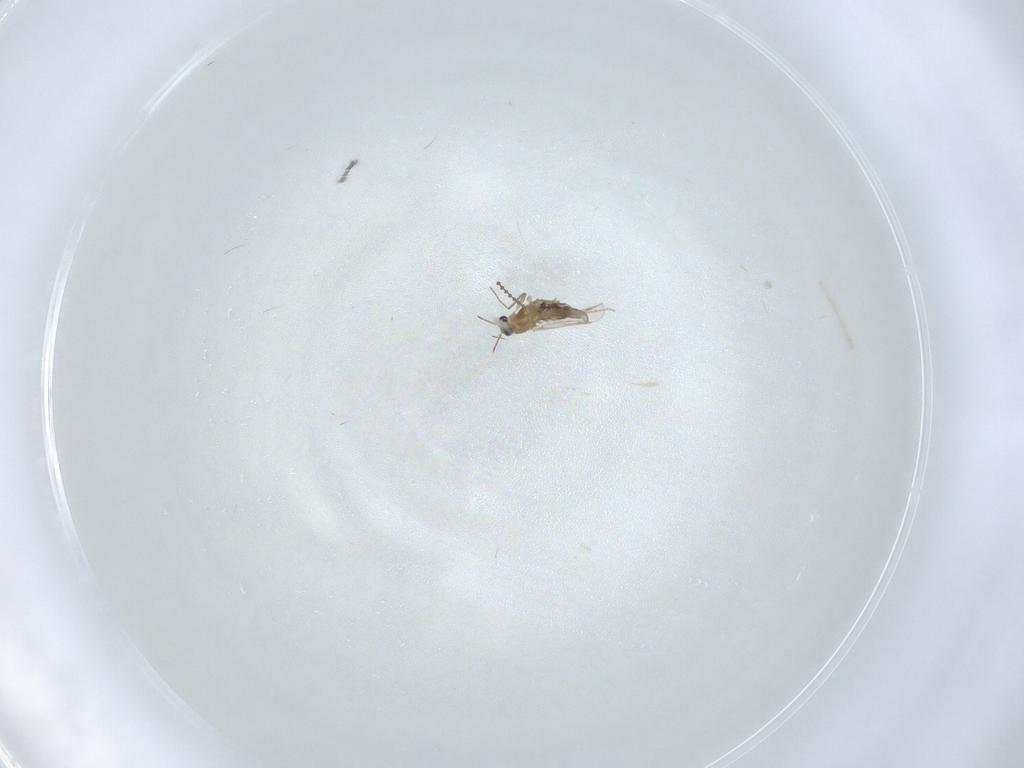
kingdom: Animalia
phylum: Arthropoda
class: Insecta
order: Diptera
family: Cecidomyiidae
